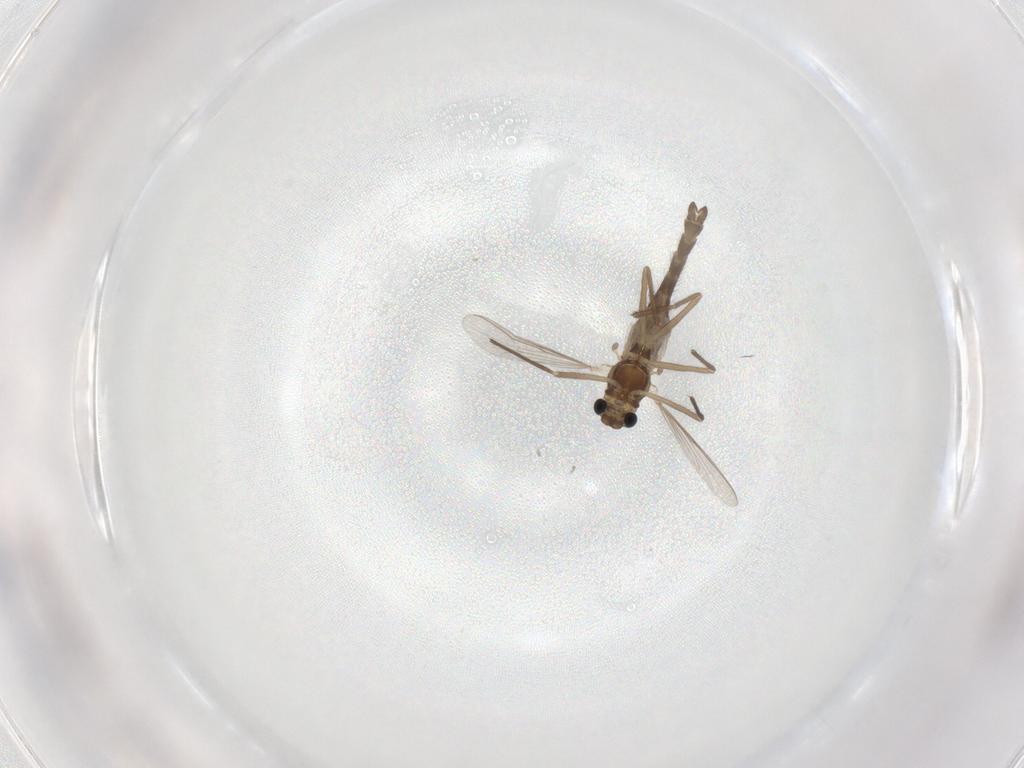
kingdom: Animalia
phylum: Arthropoda
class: Insecta
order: Diptera
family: Chironomidae
